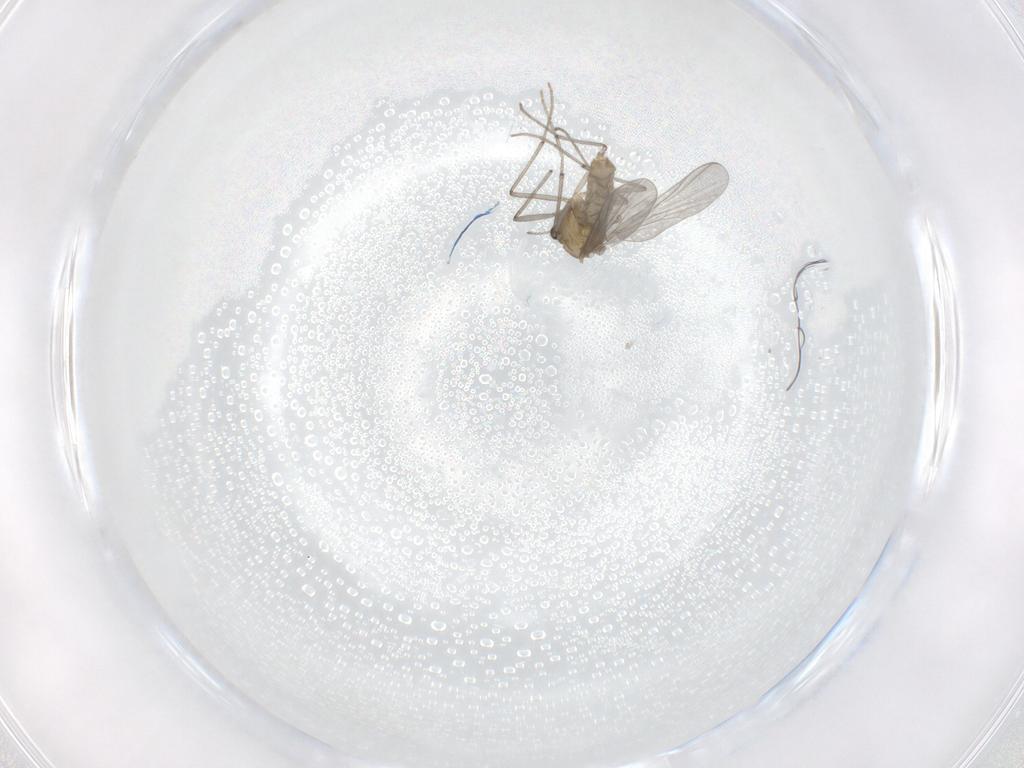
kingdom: Animalia
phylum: Arthropoda
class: Insecta
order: Diptera
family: Chironomidae
